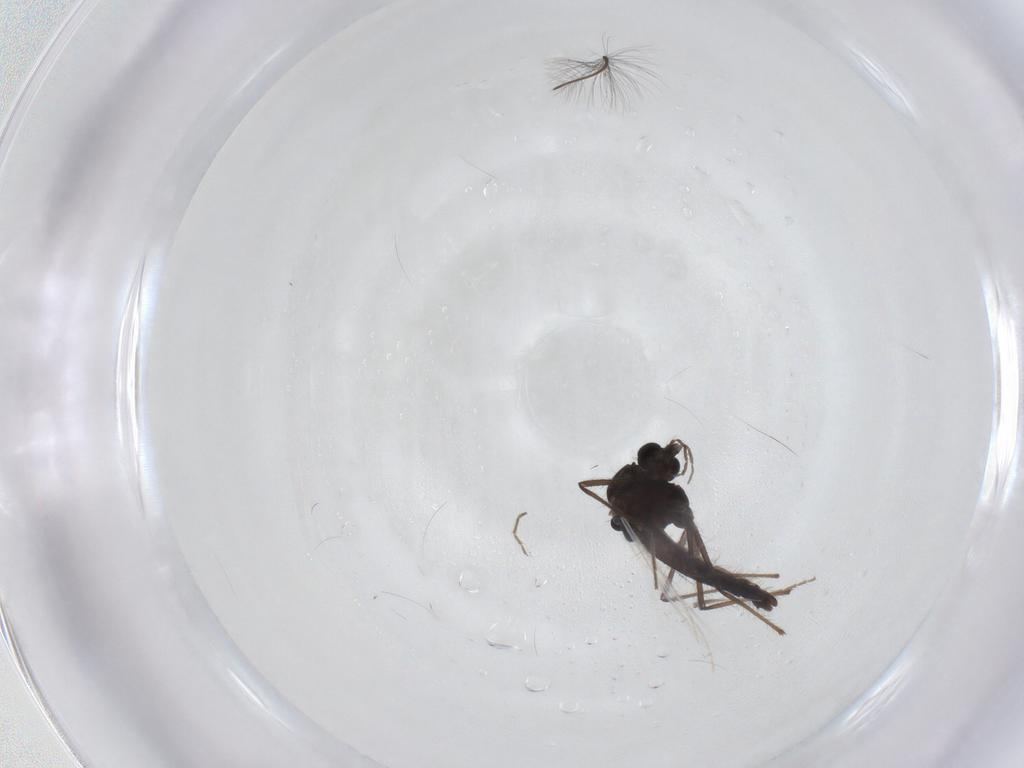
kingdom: Animalia
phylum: Arthropoda
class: Insecta
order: Diptera
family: Chironomidae
